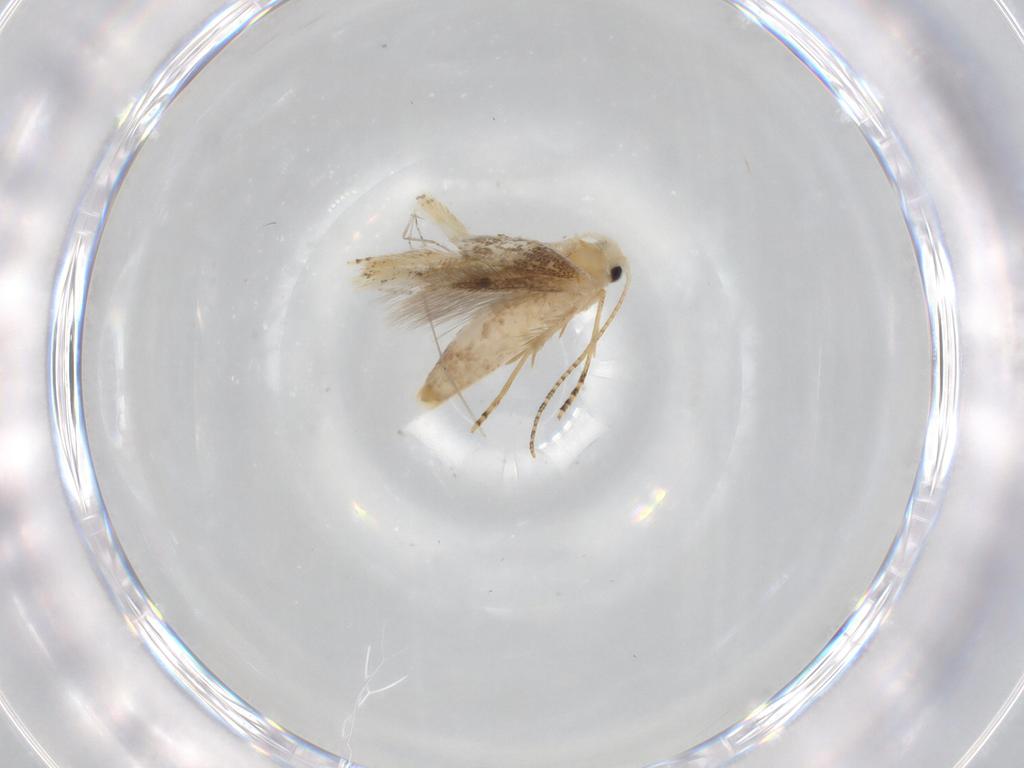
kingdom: Animalia
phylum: Arthropoda
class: Insecta
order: Lepidoptera
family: Bucculatricidae
